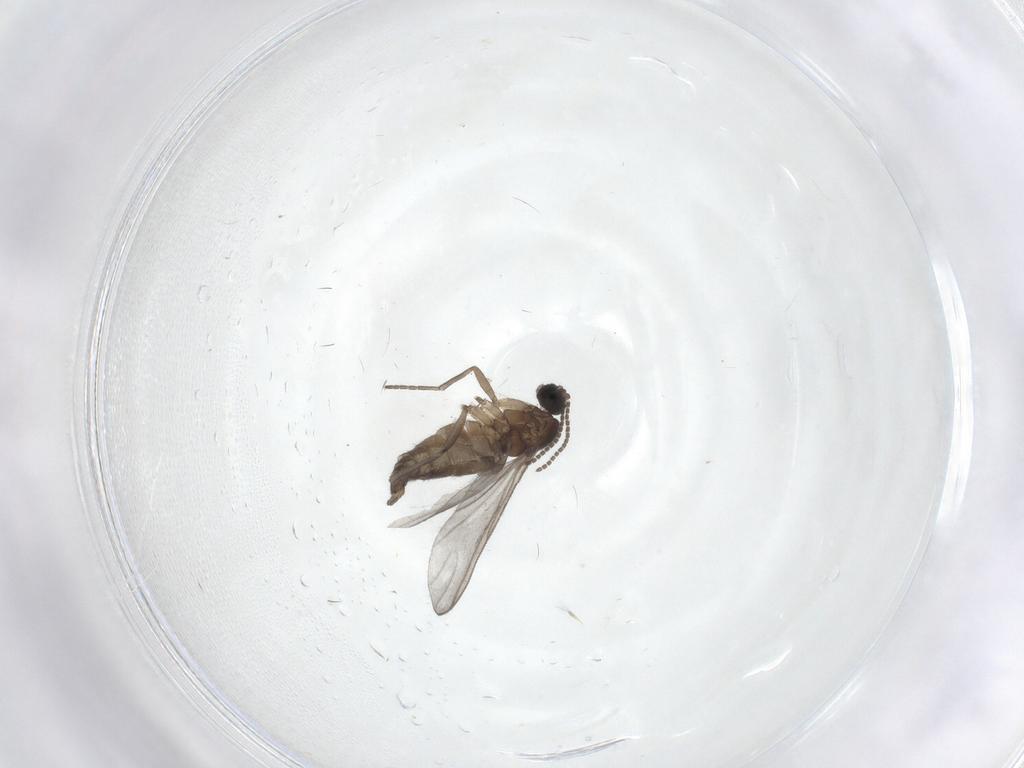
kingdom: Animalia
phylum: Arthropoda
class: Insecta
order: Diptera
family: Sciaridae
